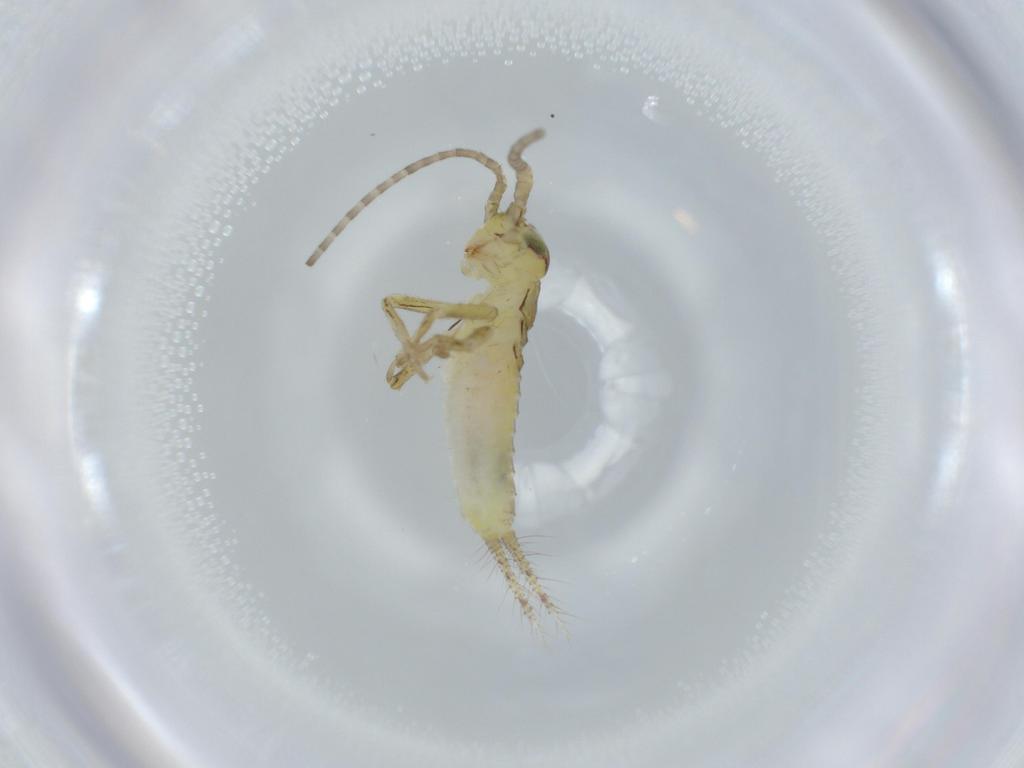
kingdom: Animalia
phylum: Arthropoda
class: Insecta
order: Orthoptera
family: Gryllidae
